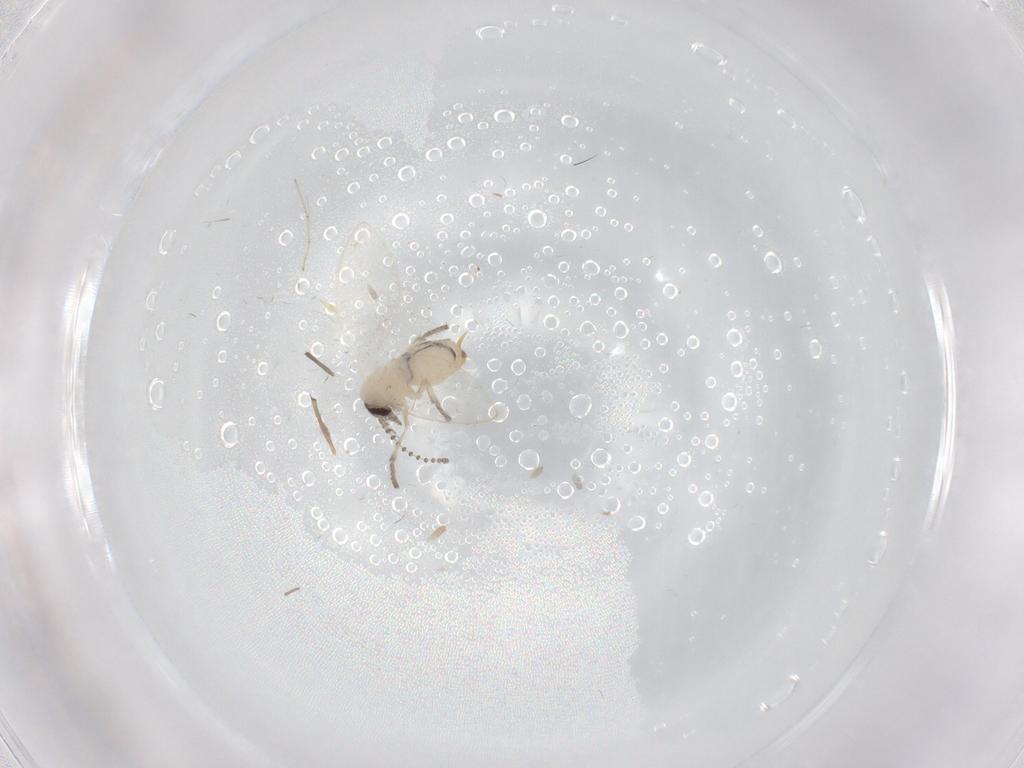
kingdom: Animalia
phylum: Arthropoda
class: Insecta
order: Diptera
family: Psychodidae
